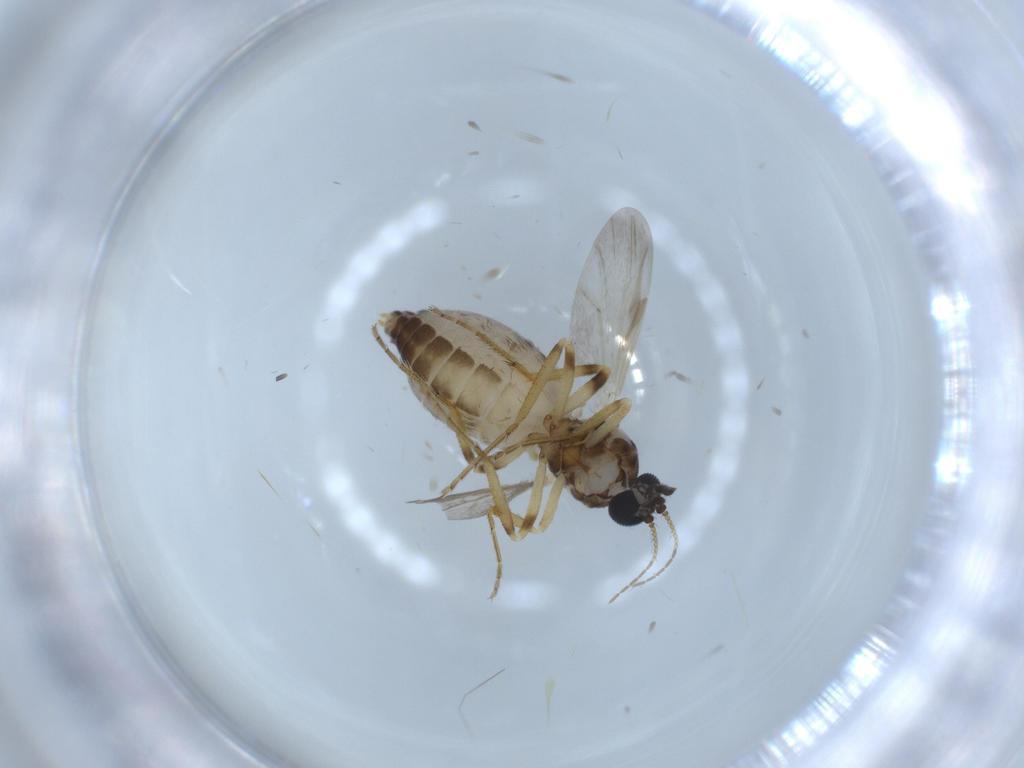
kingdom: Animalia
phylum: Arthropoda
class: Insecta
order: Diptera
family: Ceratopogonidae
